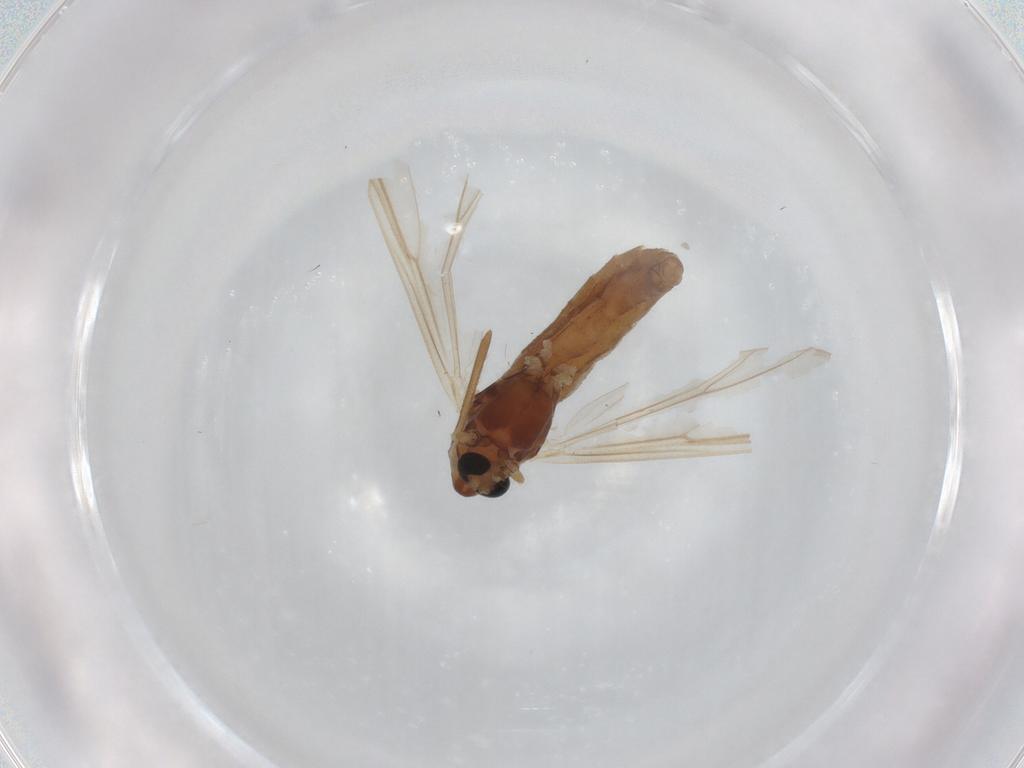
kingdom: Animalia
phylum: Arthropoda
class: Insecta
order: Diptera
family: Chironomidae
